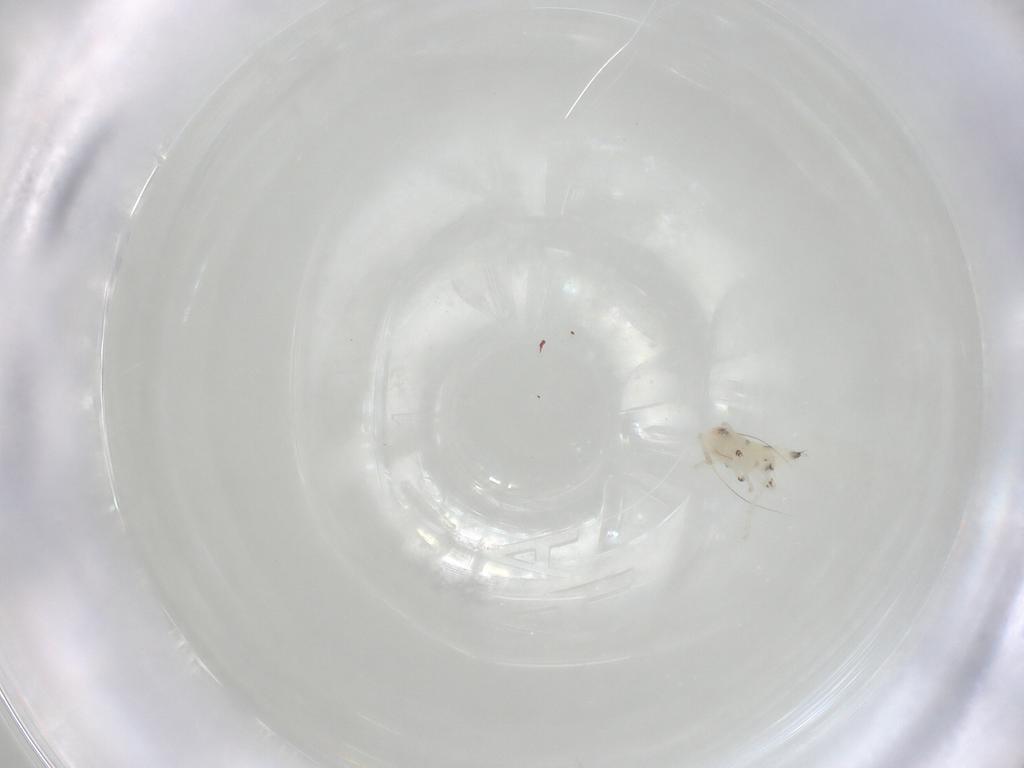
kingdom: Animalia
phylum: Arthropoda
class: Insecta
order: Hemiptera
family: Cicadellidae
